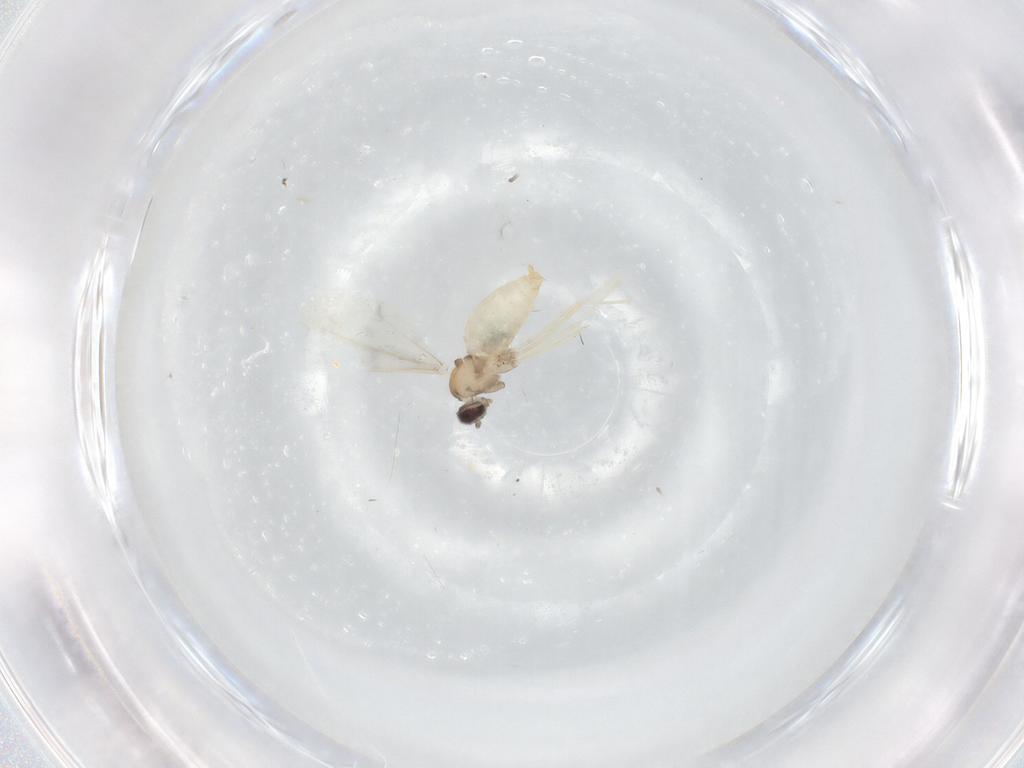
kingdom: Animalia
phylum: Arthropoda
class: Insecta
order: Diptera
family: Cecidomyiidae
